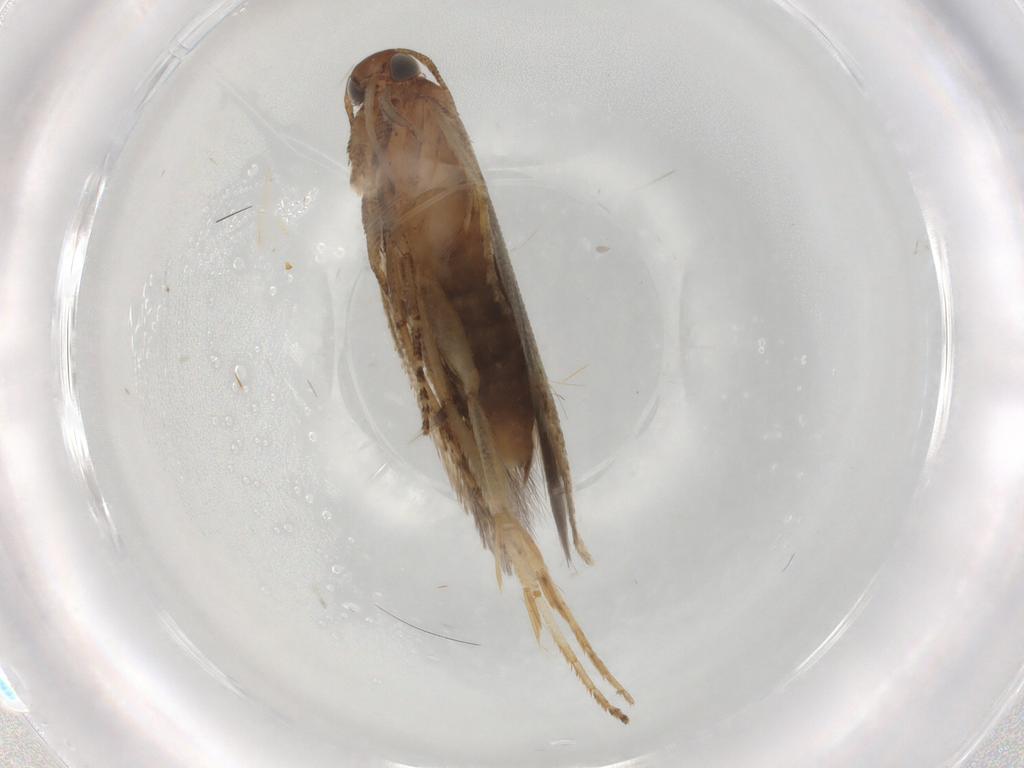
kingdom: Animalia
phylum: Arthropoda
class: Insecta
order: Lepidoptera
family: Gelechiidae
